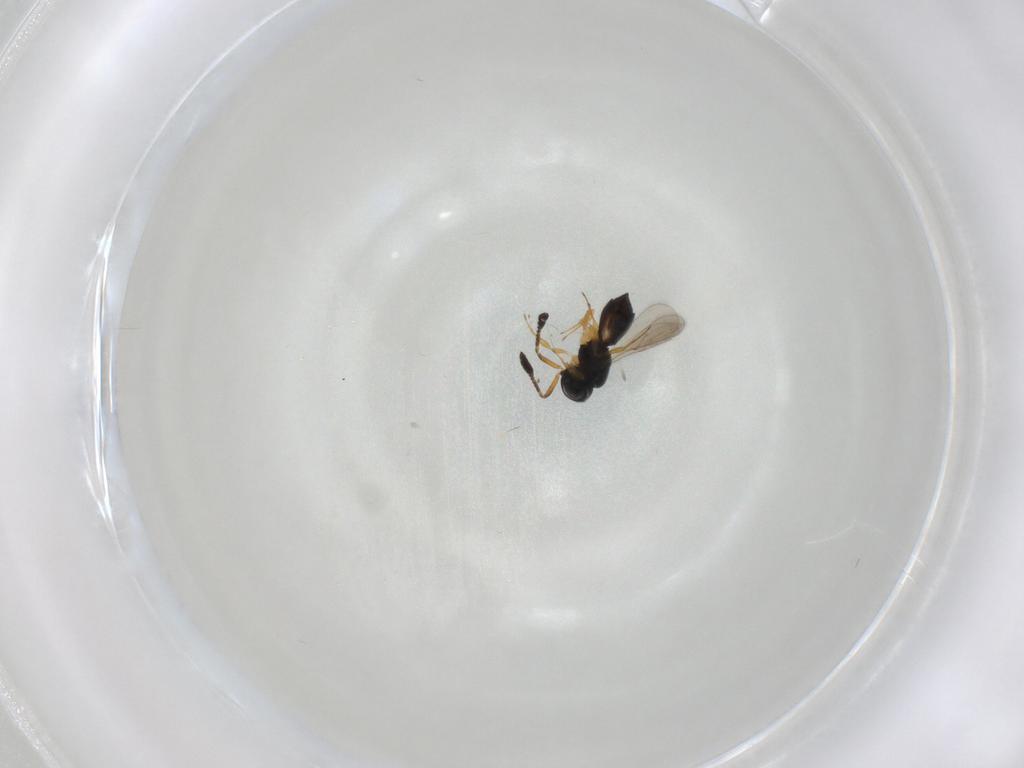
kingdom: Animalia
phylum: Arthropoda
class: Insecta
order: Hymenoptera
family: Scelionidae
